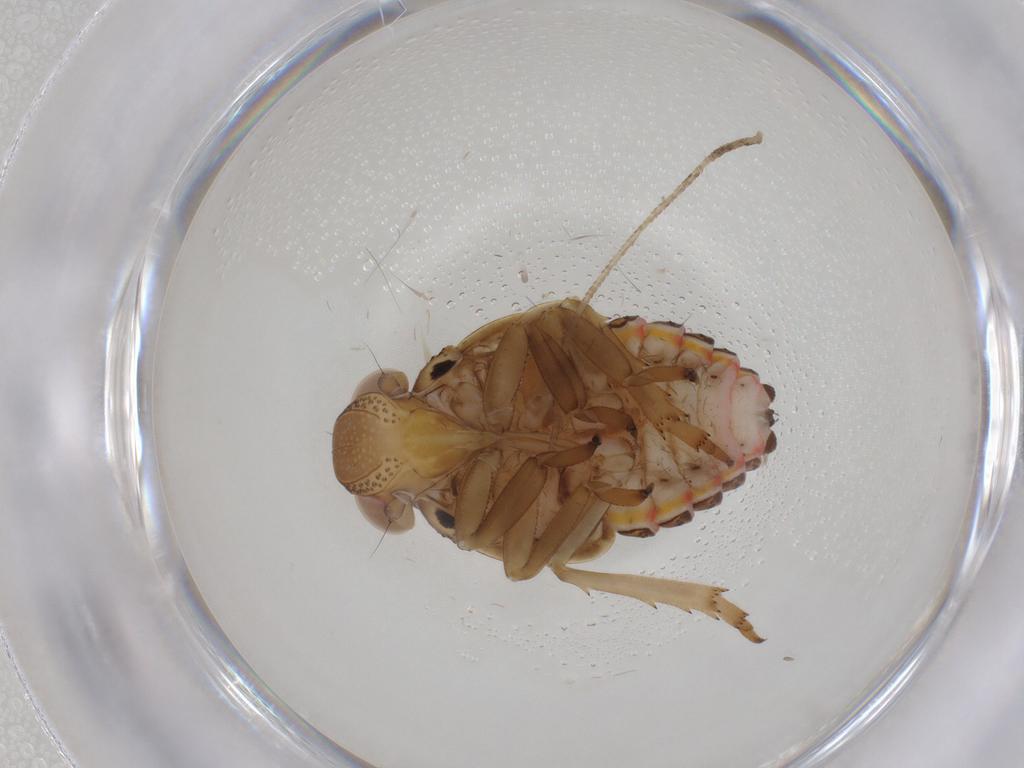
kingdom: Animalia
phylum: Arthropoda
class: Insecta
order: Hemiptera
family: Issidae
